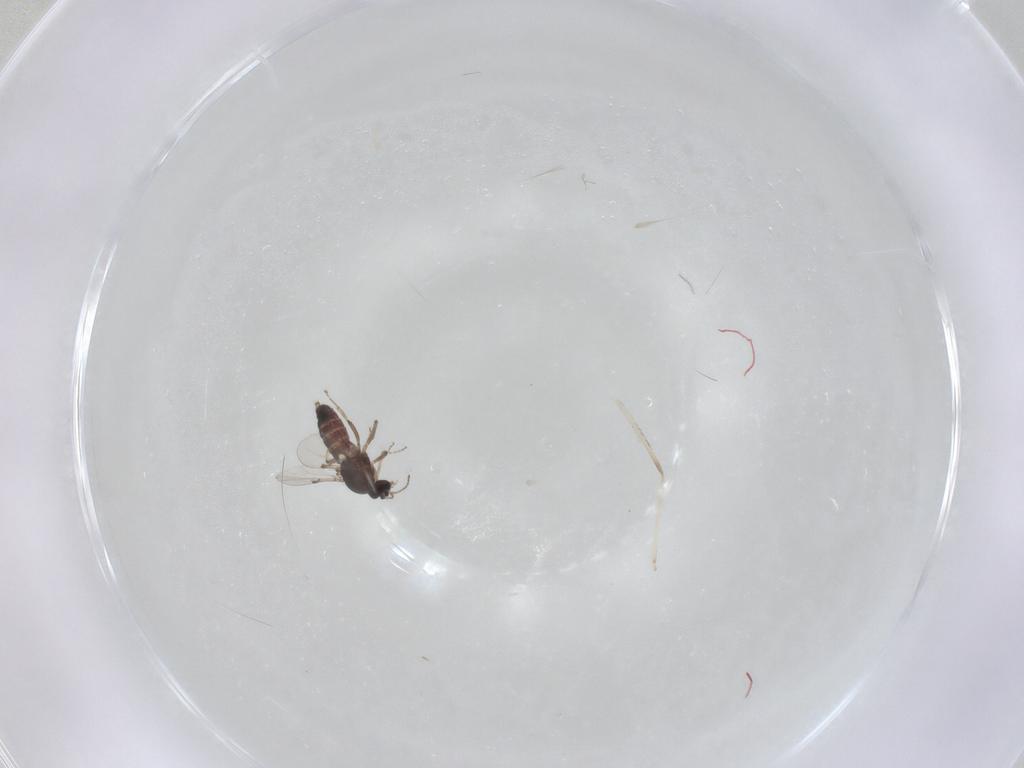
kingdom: Animalia
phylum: Arthropoda
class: Insecta
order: Diptera
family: Ceratopogonidae
